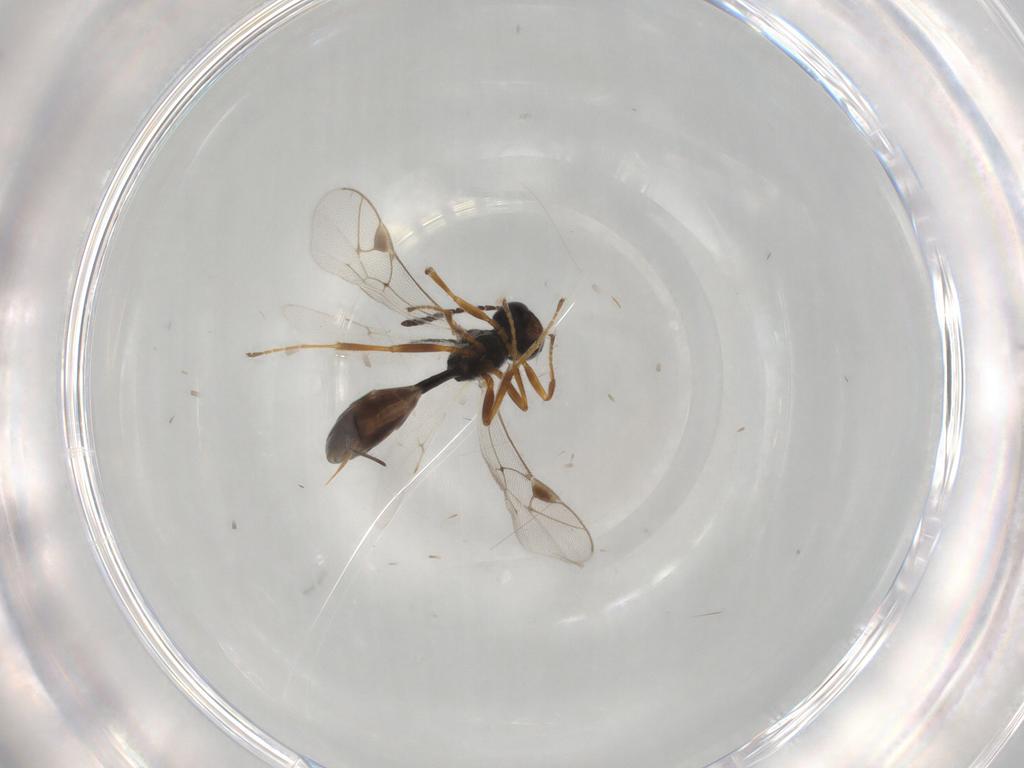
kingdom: Animalia
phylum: Arthropoda
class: Insecta
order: Hymenoptera
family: Ichneumonidae
